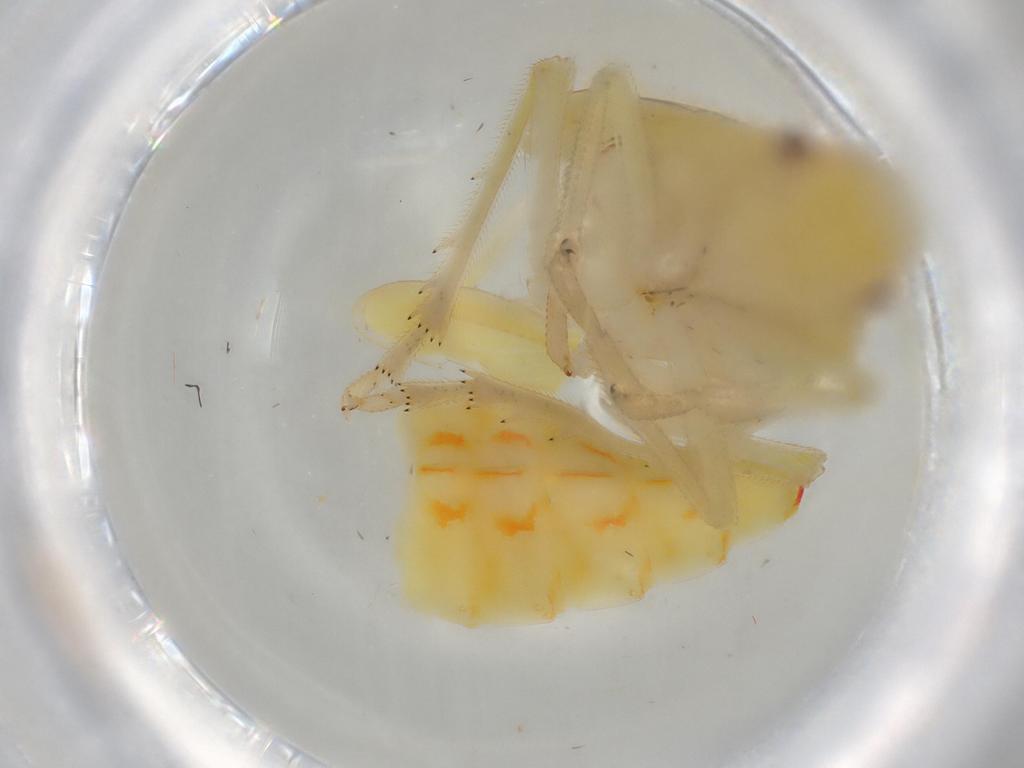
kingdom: Animalia
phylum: Arthropoda
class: Insecta
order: Hemiptera
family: Tropiduchidae
